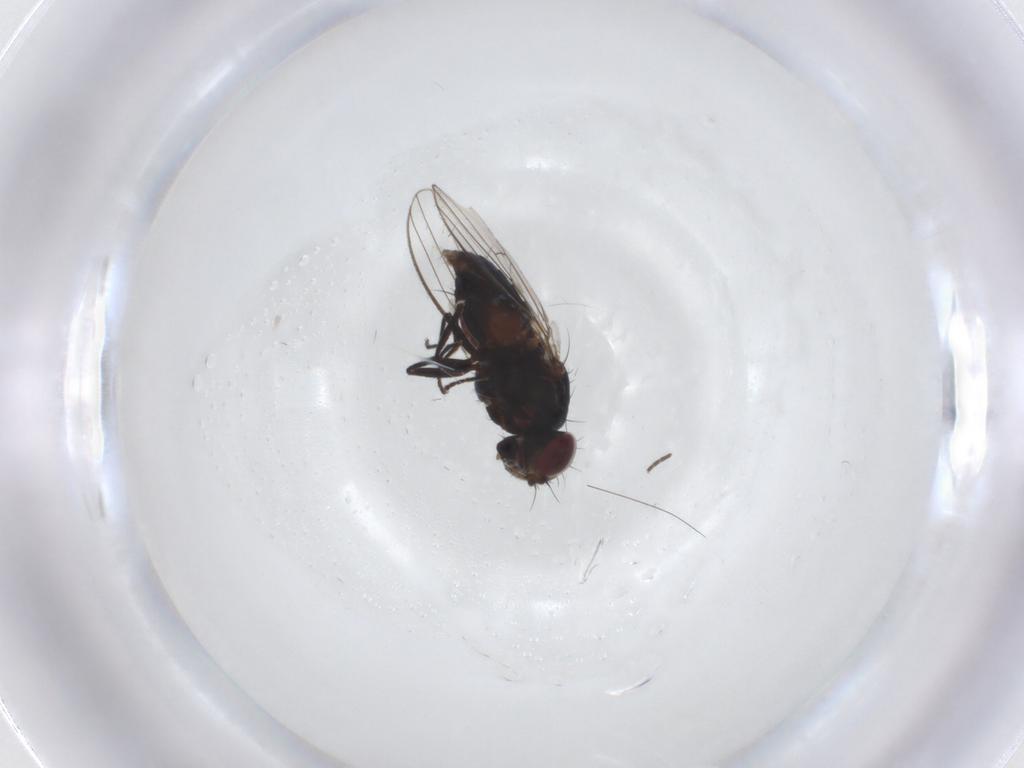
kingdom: Animalia
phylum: Arthropoda
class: Insecta
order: Diptera
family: Carnidae
